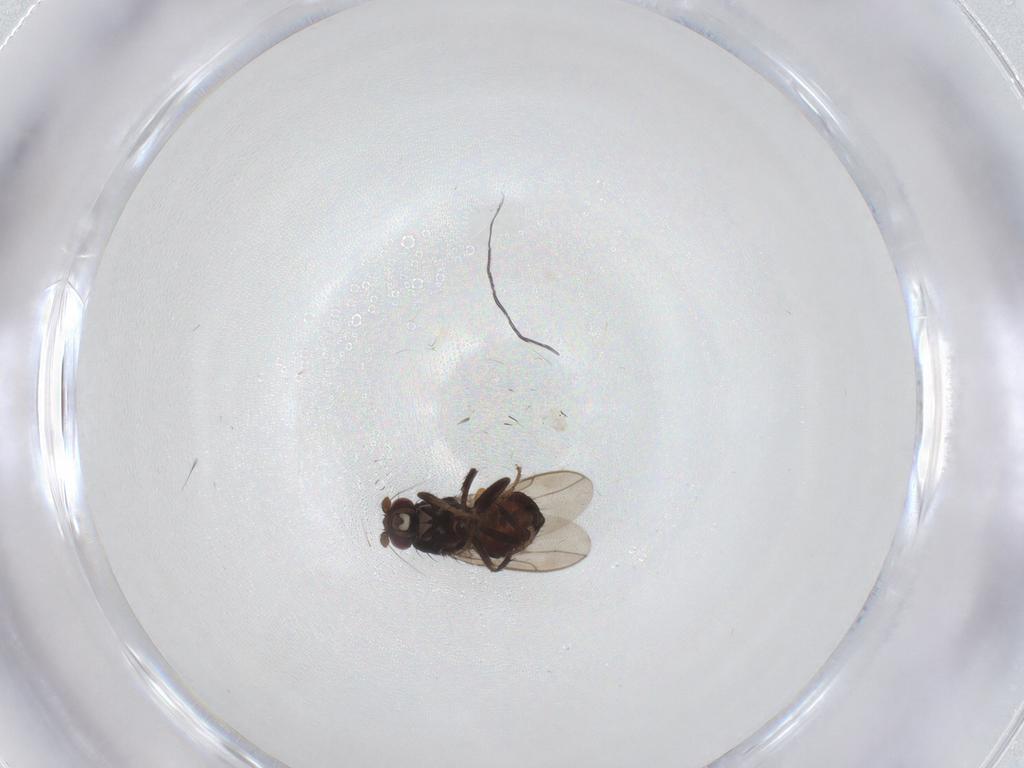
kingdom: Animalia
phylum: Arthropoda
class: Insecta
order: Diptera
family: Sphaeroceridae
